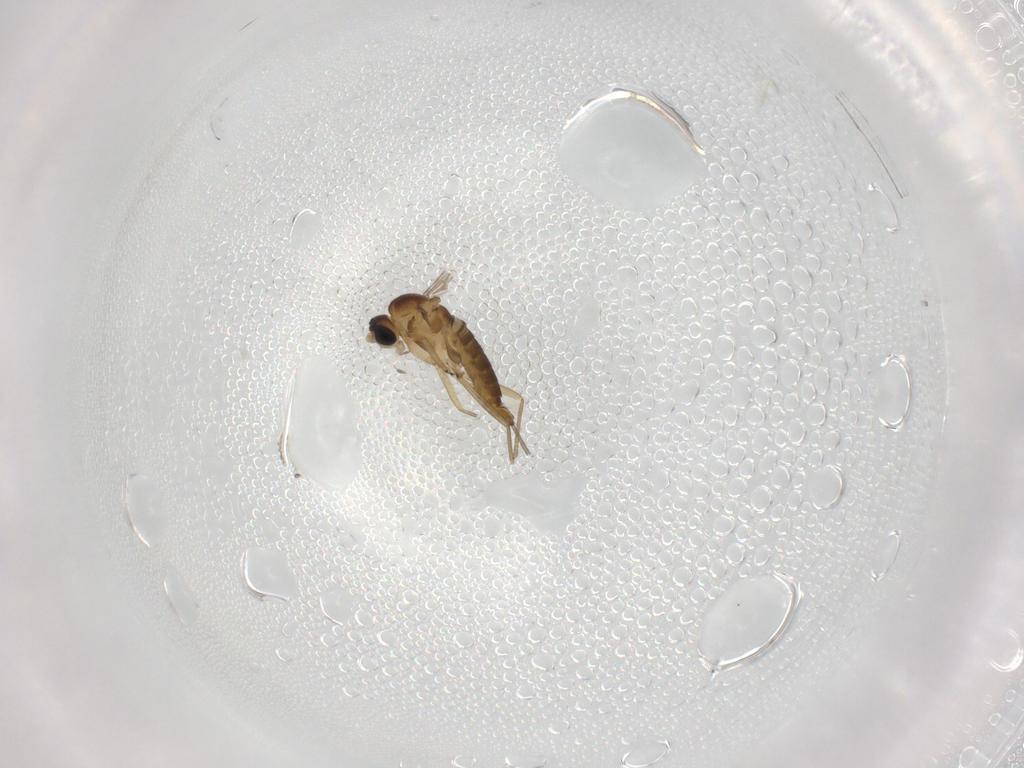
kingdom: Animalia
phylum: Arthropoda
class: Insecta
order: Diptera
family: Sciaridae
